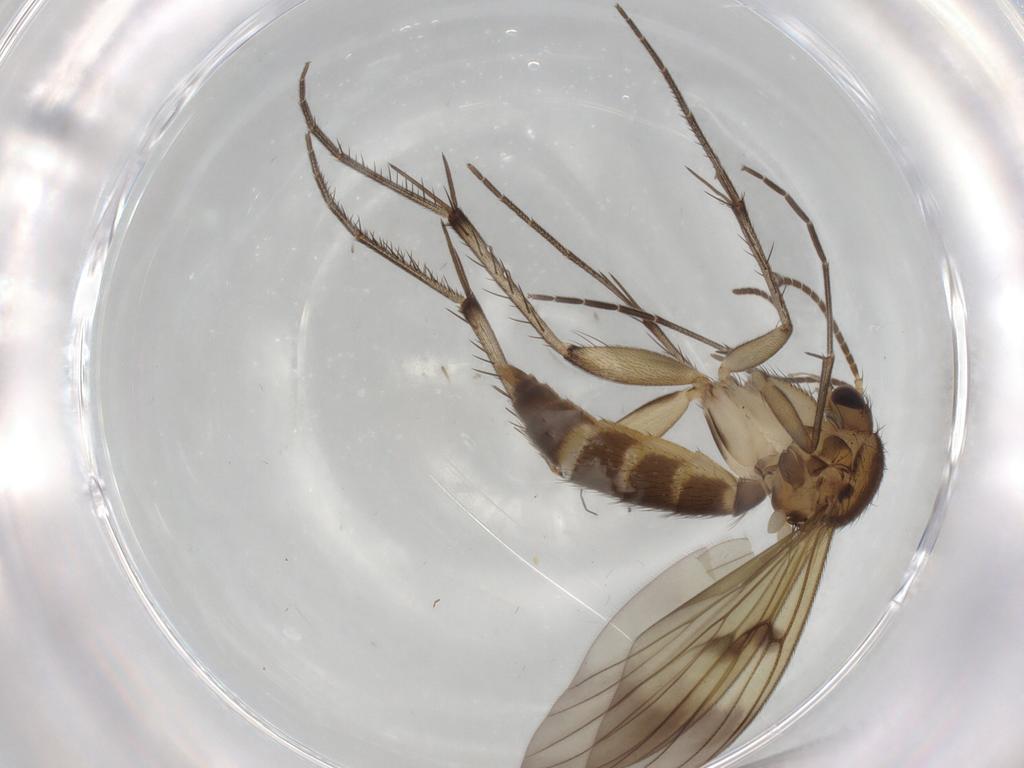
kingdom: Animalia
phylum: Arthropoda
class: Insecta
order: Diptera
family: Mycetophilidae
